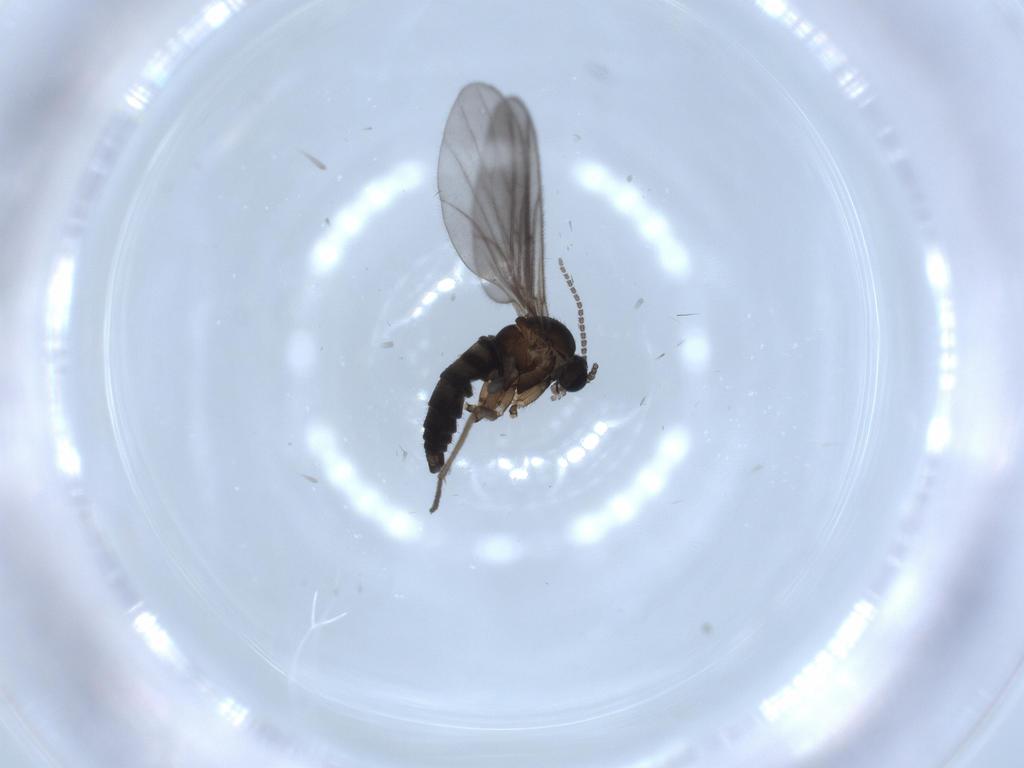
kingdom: Animalia
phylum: Arthropoda
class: Insecta
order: Diptera
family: Sciaridae
